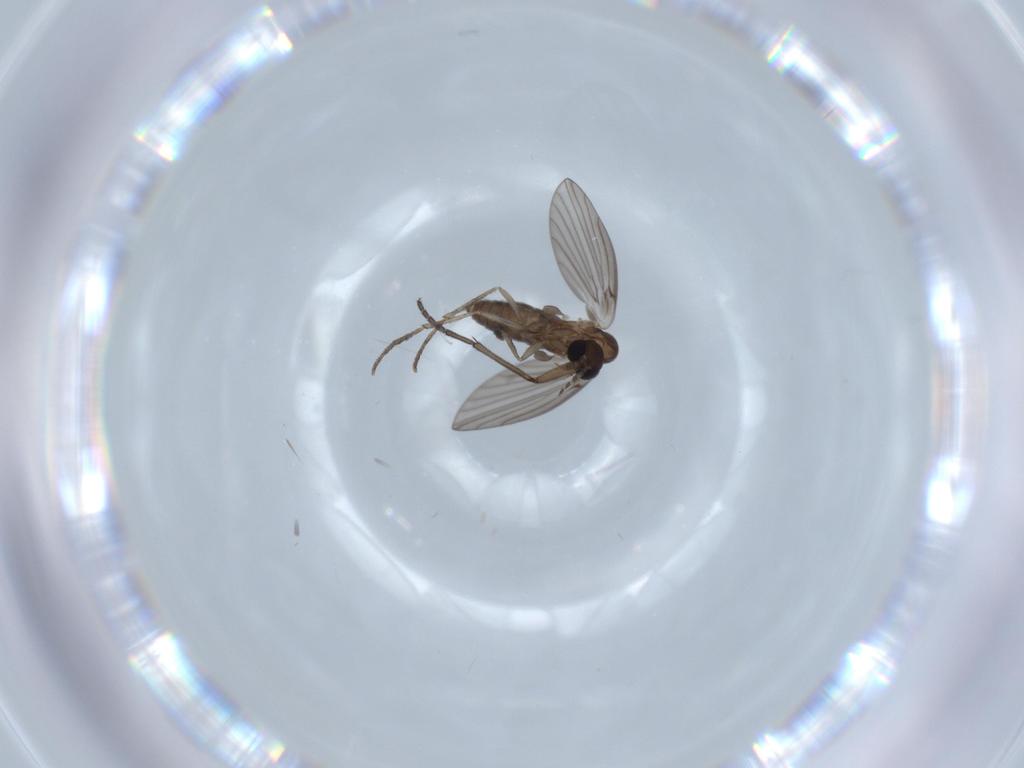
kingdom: Animalia
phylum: Arthropoda
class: Insecta
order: Diptera
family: Sciaridae
